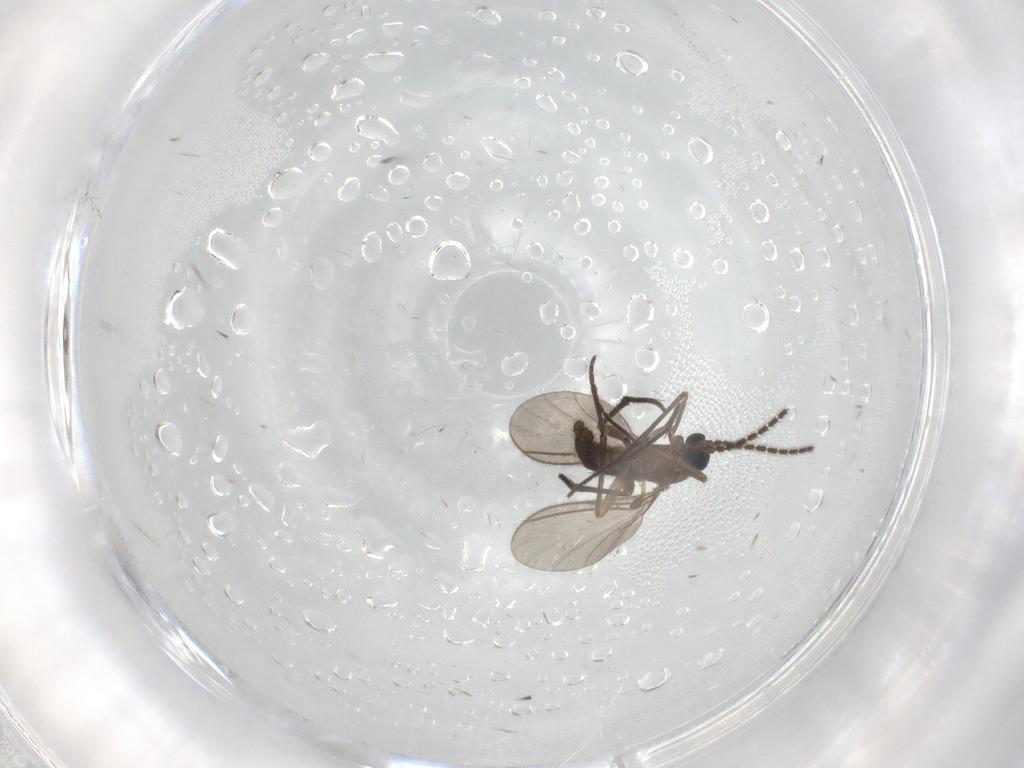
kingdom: Animalia
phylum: Arthropoda
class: Insecta
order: Diptera
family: Sciaridae
